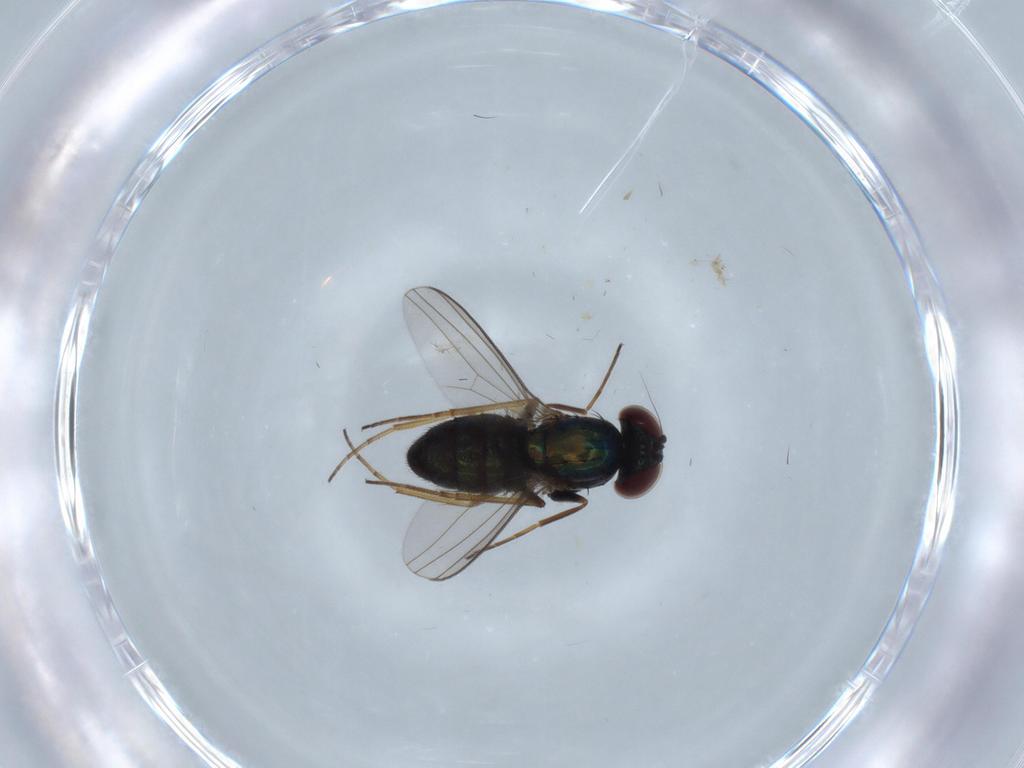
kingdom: Animalia
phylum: Arthropoda
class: Insecta
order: Diptera
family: Dolichopodidae
